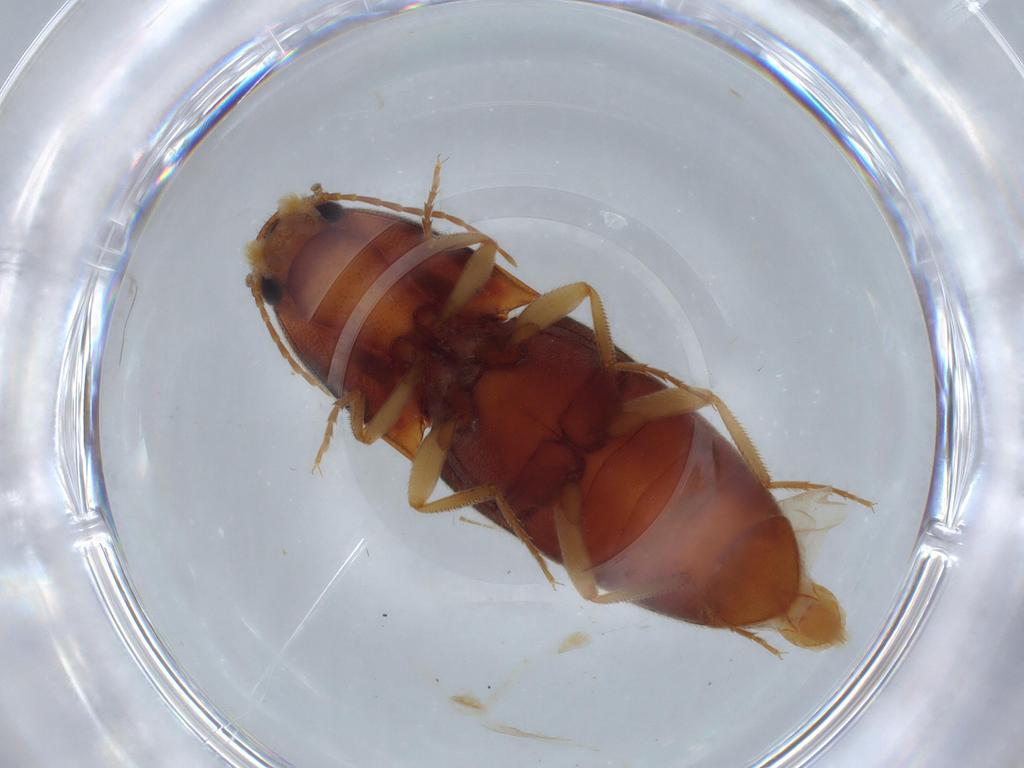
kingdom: Animalia
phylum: Arthropoda
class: Insecta
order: Coleoptera
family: Elateridae
